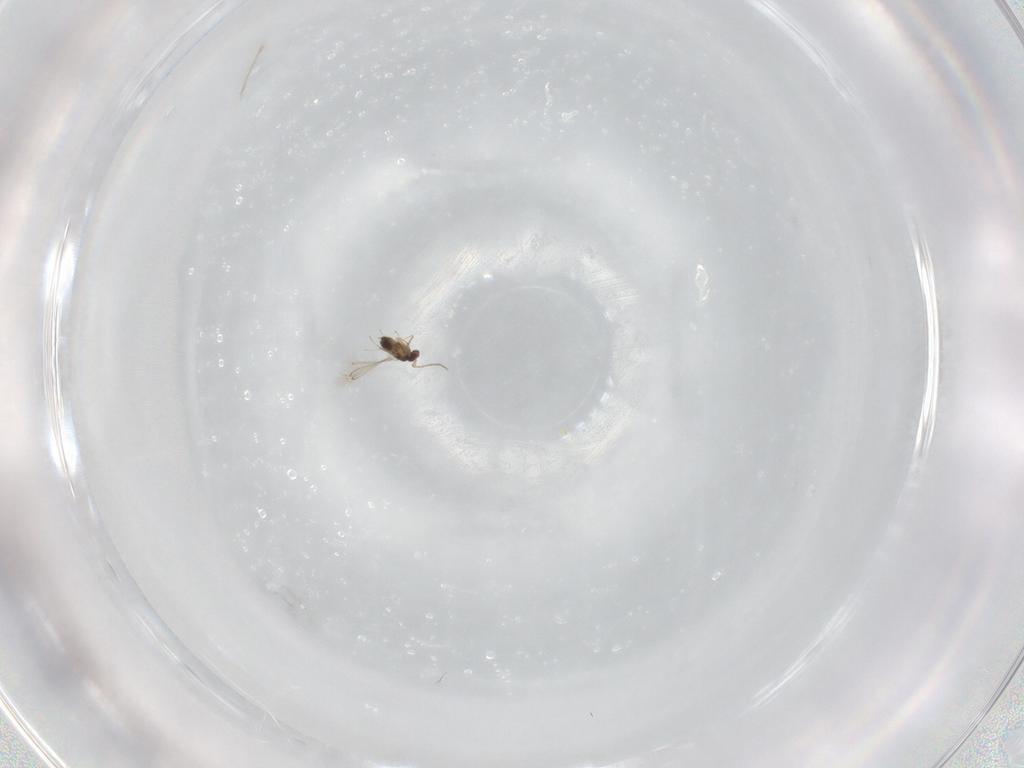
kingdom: Animalia
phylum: Arthropoda
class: Insecta
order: Hymenoptera
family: Mymaridae
